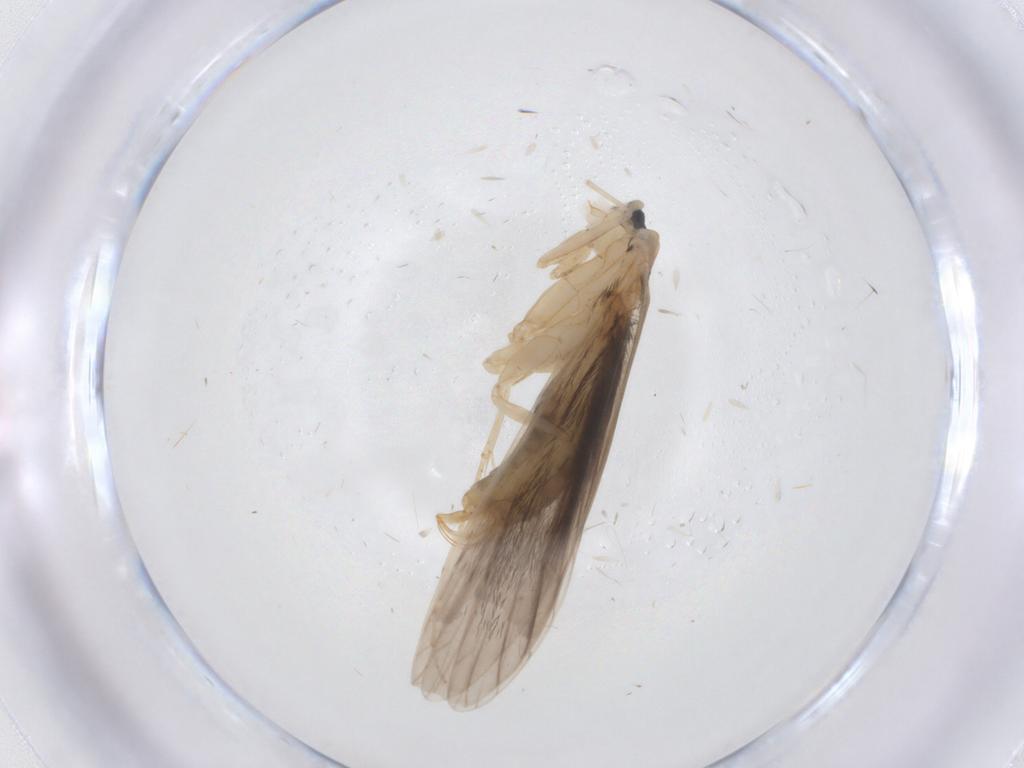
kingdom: Animalia
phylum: Arthropoda
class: Insecta
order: Trichoptera
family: Leptoceridae
